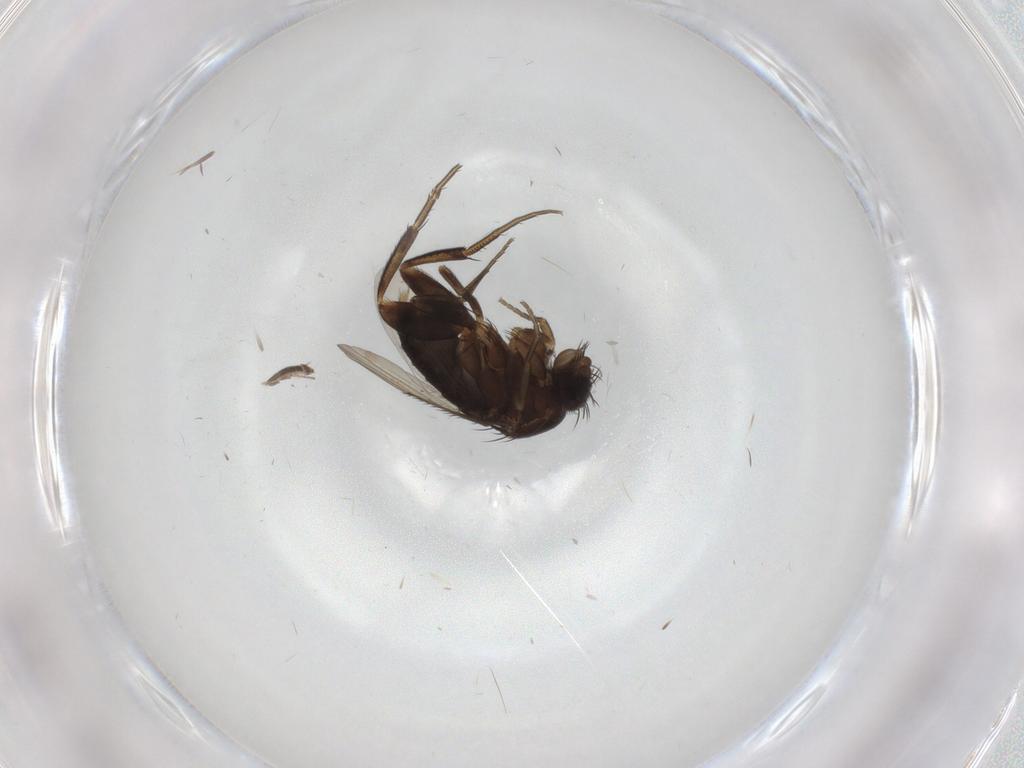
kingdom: Animalia
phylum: Arthropoda
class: Insecta
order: Diptera
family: Phoridae
